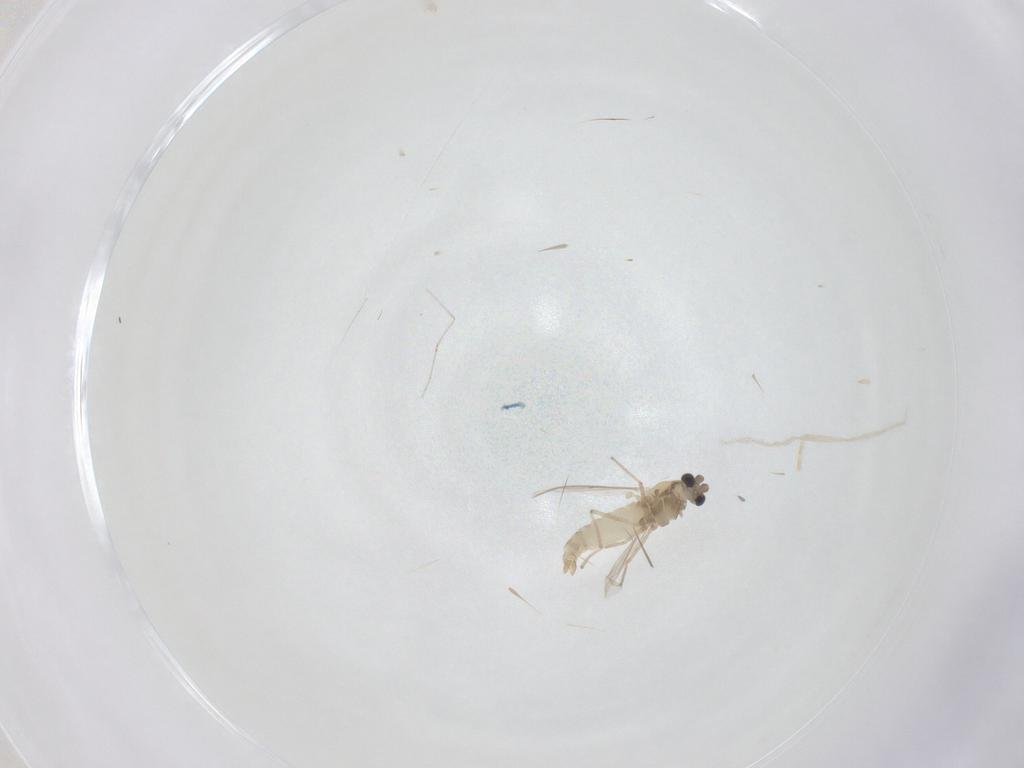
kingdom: Animalia
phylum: Arthropoda
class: Insecta
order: Diptera
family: Chironomidae
